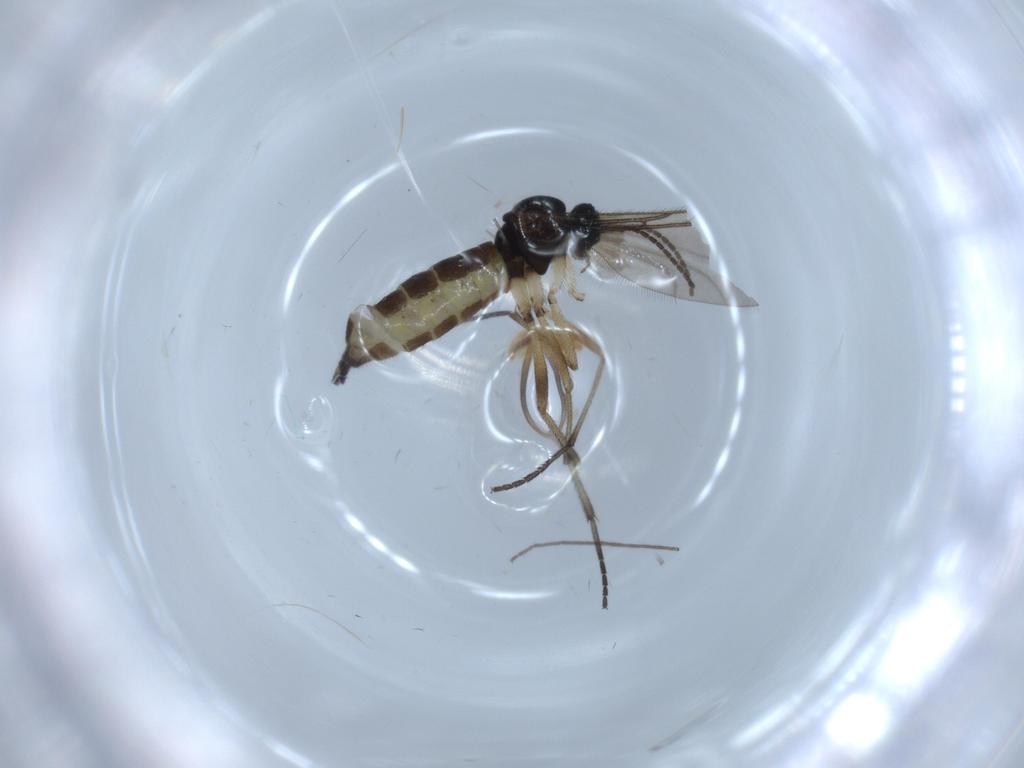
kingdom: Animalia
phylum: Arthropoda
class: Insecta
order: Diptera
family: Sciaridae
